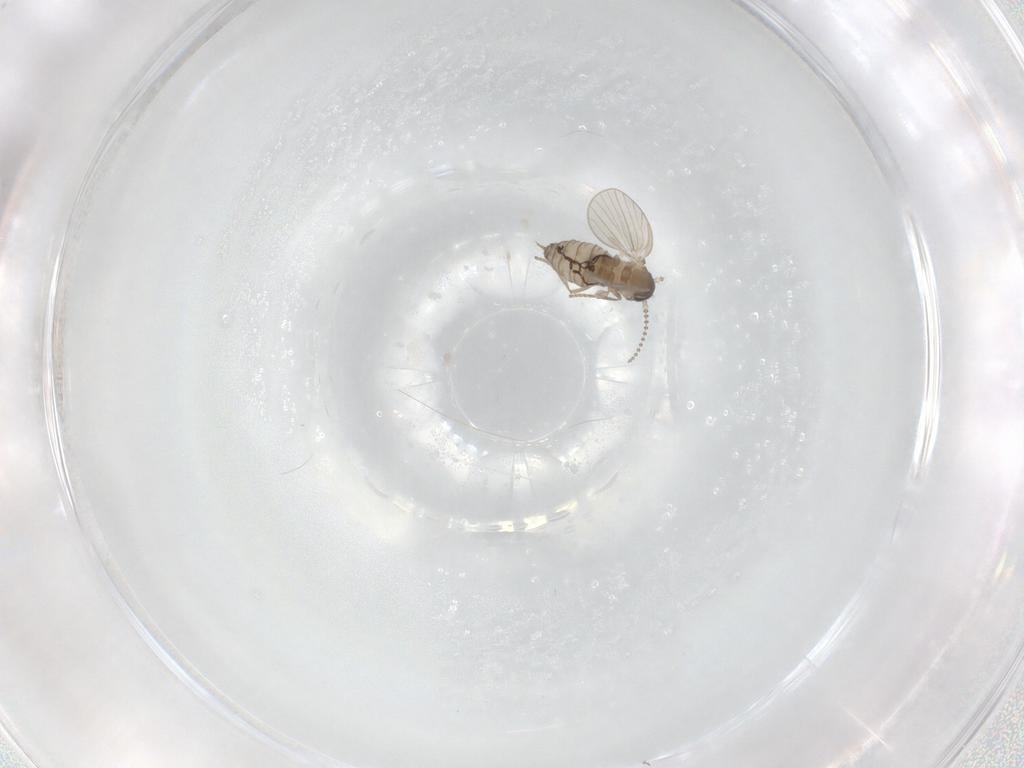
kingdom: Animalia
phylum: Arthropoda
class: Insecta
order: Diptera
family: Psychodidae
